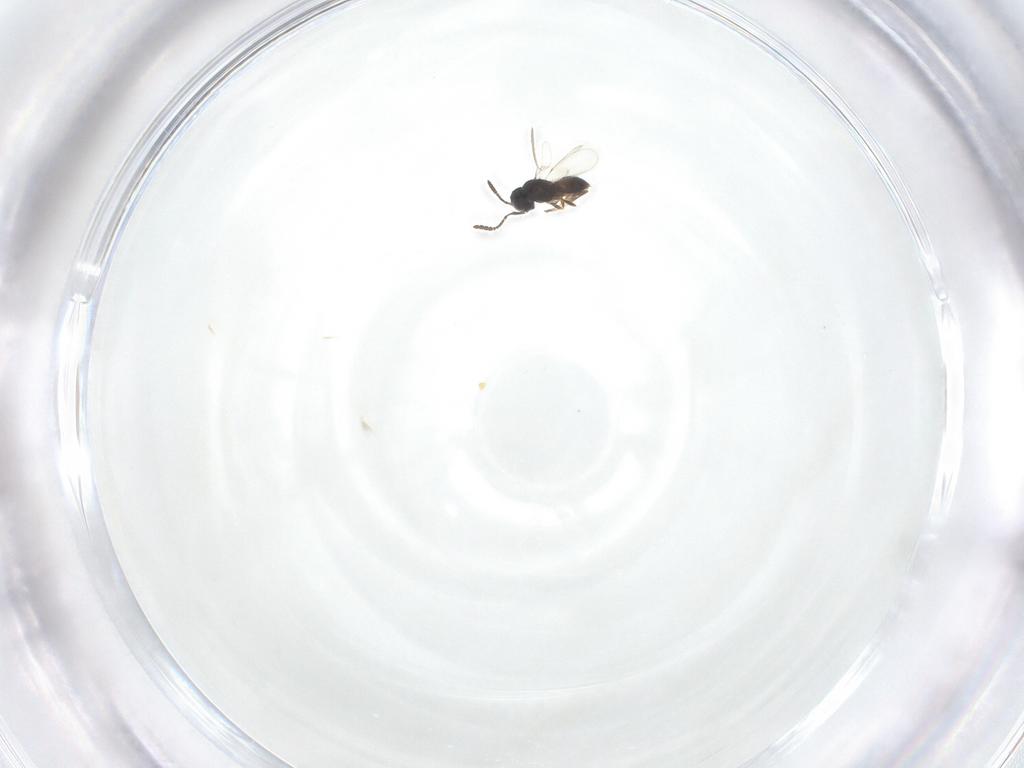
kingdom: Animalia
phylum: Arthropoda
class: Insecta
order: Hymenoptera
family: Scelionidae
